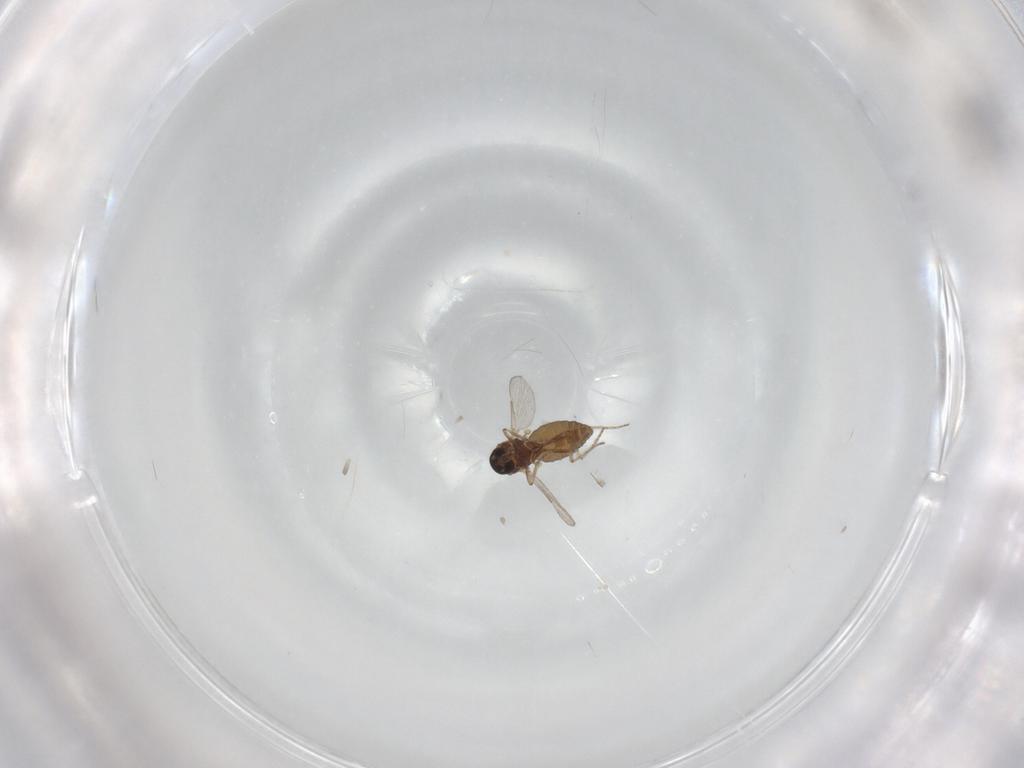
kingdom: Animalia
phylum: Arthropoda
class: Insecta
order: Diptera
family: Ceratopogonidae
